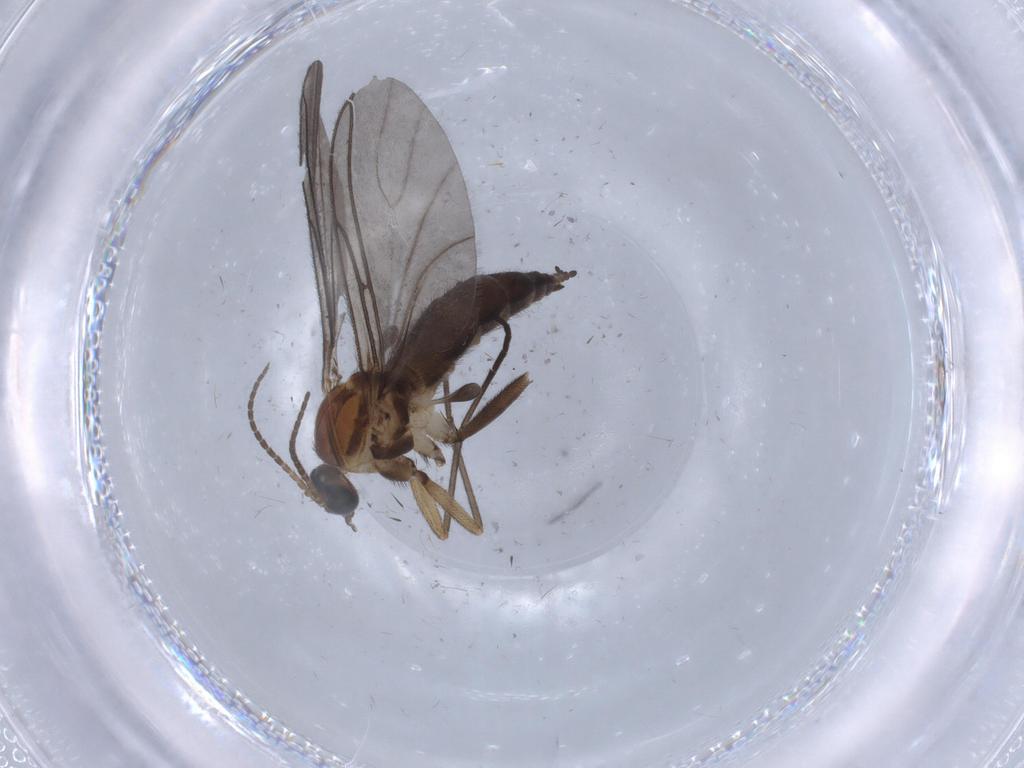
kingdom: Animalia
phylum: Arthropoda
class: Insecta
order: Diptera
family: Sciaridae
